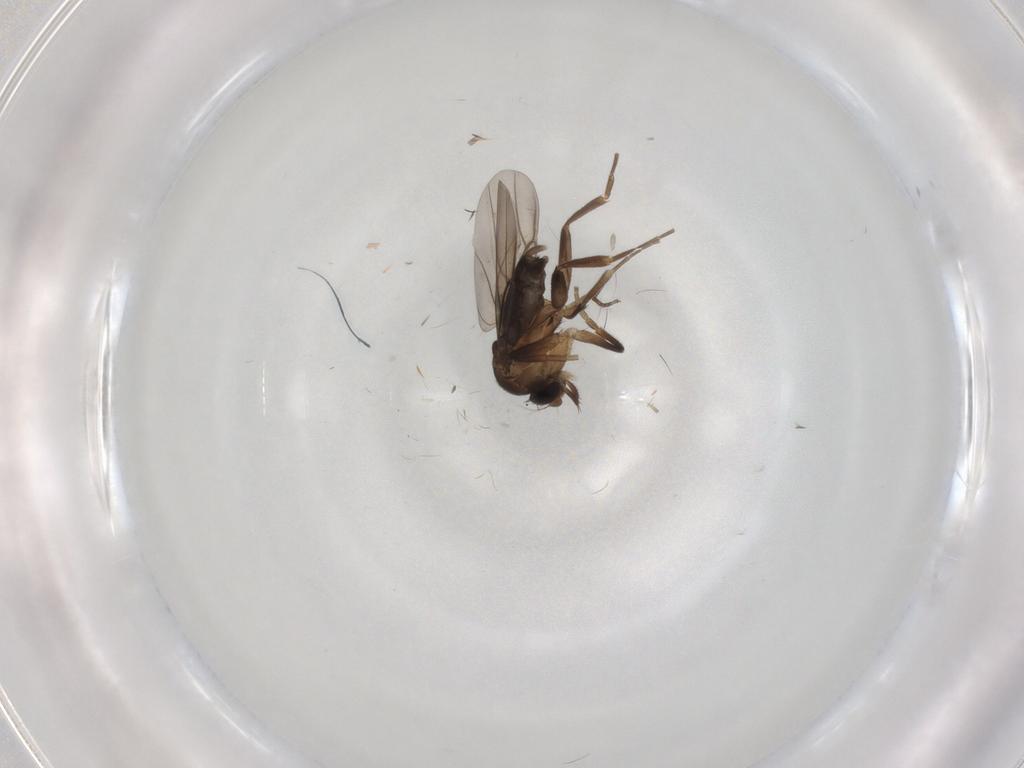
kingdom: Animalia
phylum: Arthropoda
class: Insecta
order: Diptera
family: Phoridae
